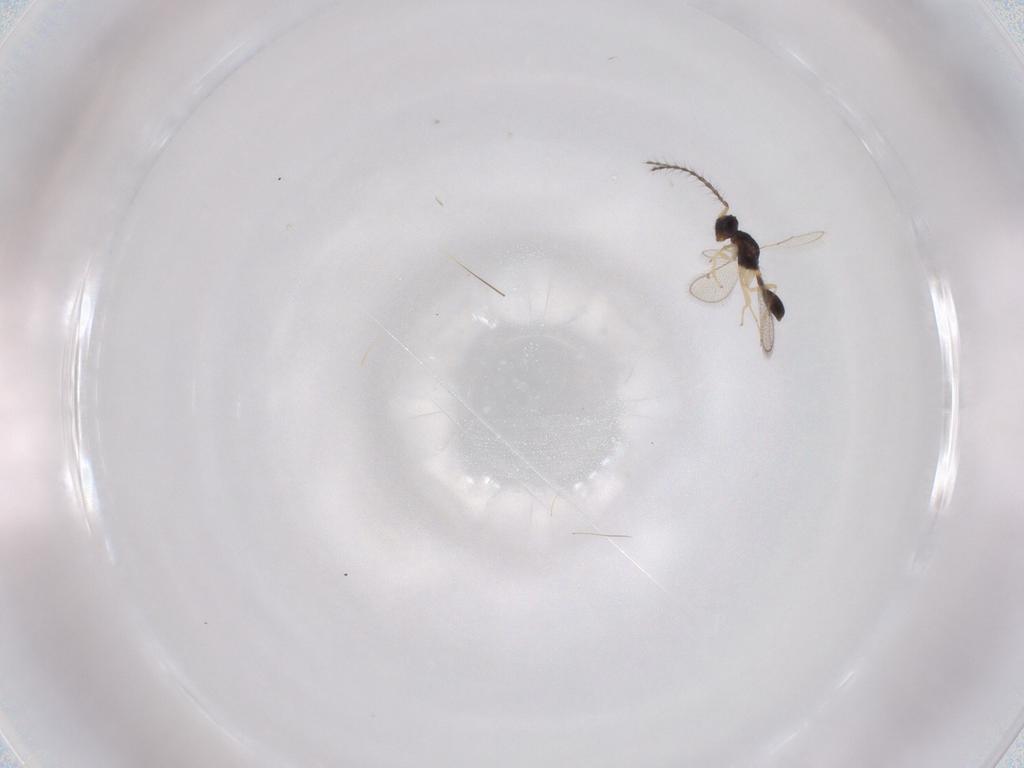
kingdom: Animalia
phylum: Arthropoda
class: Insecta
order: Hymenoptera
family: Diparidae
